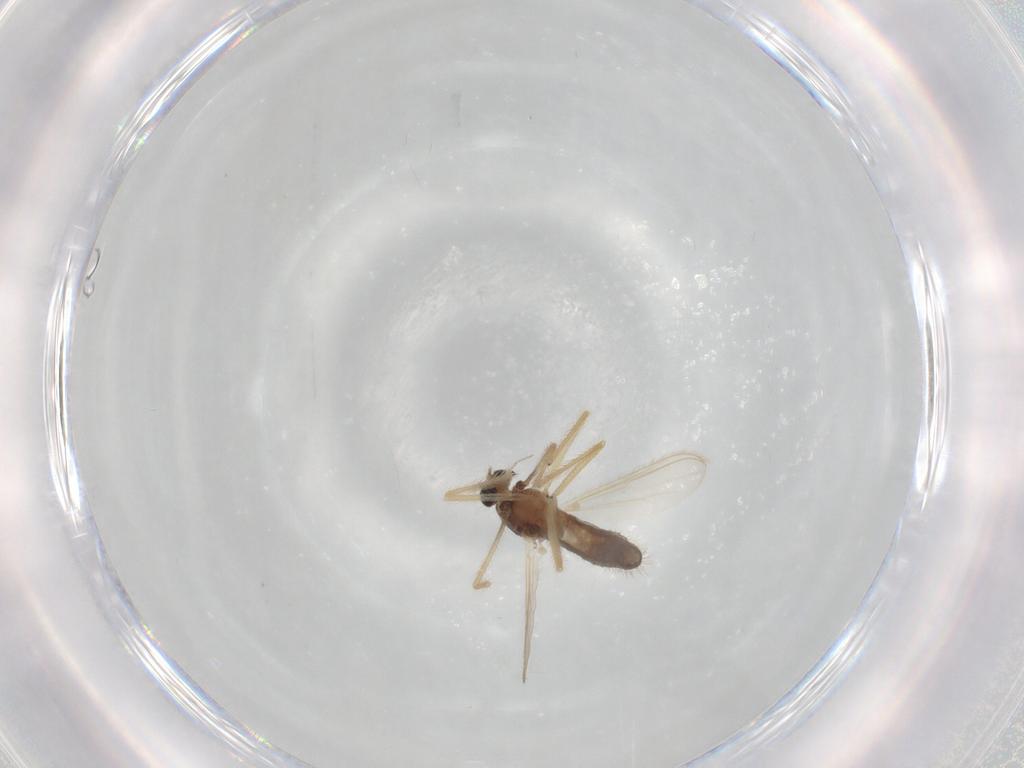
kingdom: Animalia
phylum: Arthropoda
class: Insecta
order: Diptera
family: Chironomidae
